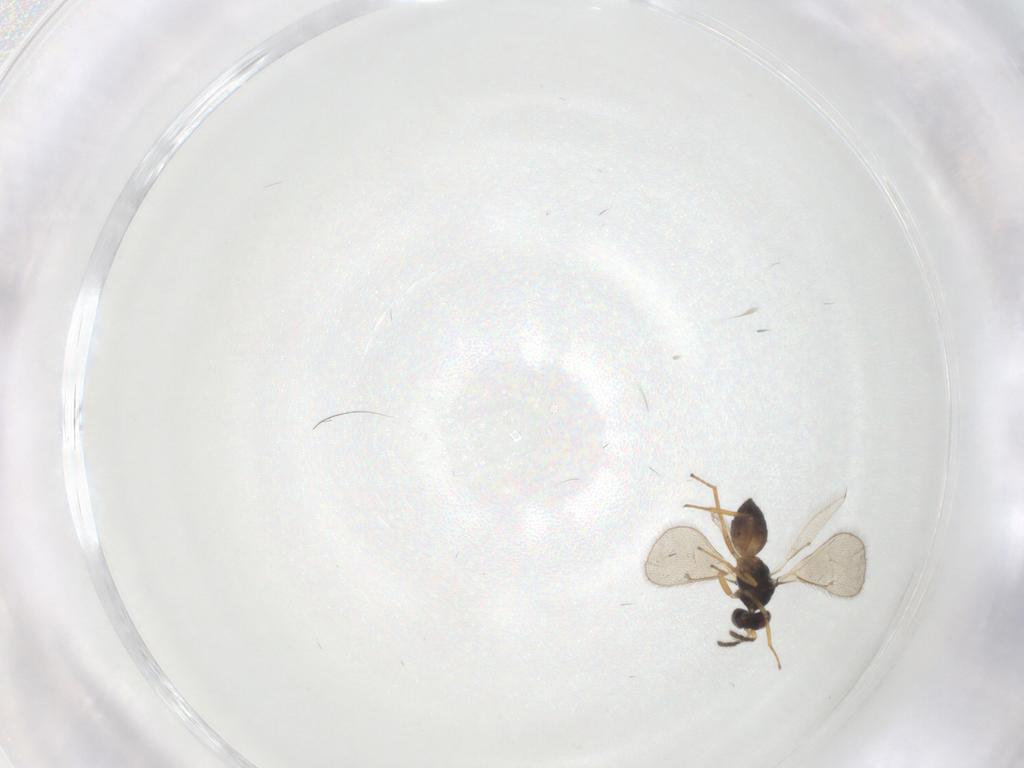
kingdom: Animalia
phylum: Arthropoda
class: Insecta
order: Hymenoptera
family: Eulophidae
